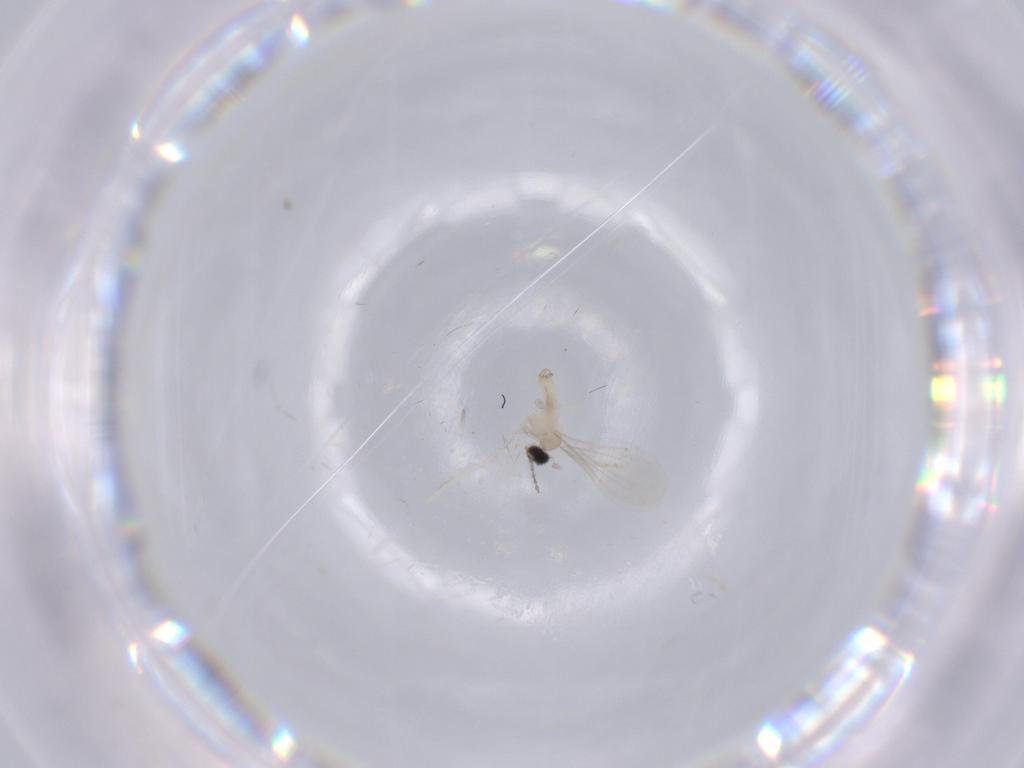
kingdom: Animalia
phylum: Arthropoda
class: Insecta
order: Diptera
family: Cecidomyiidae
